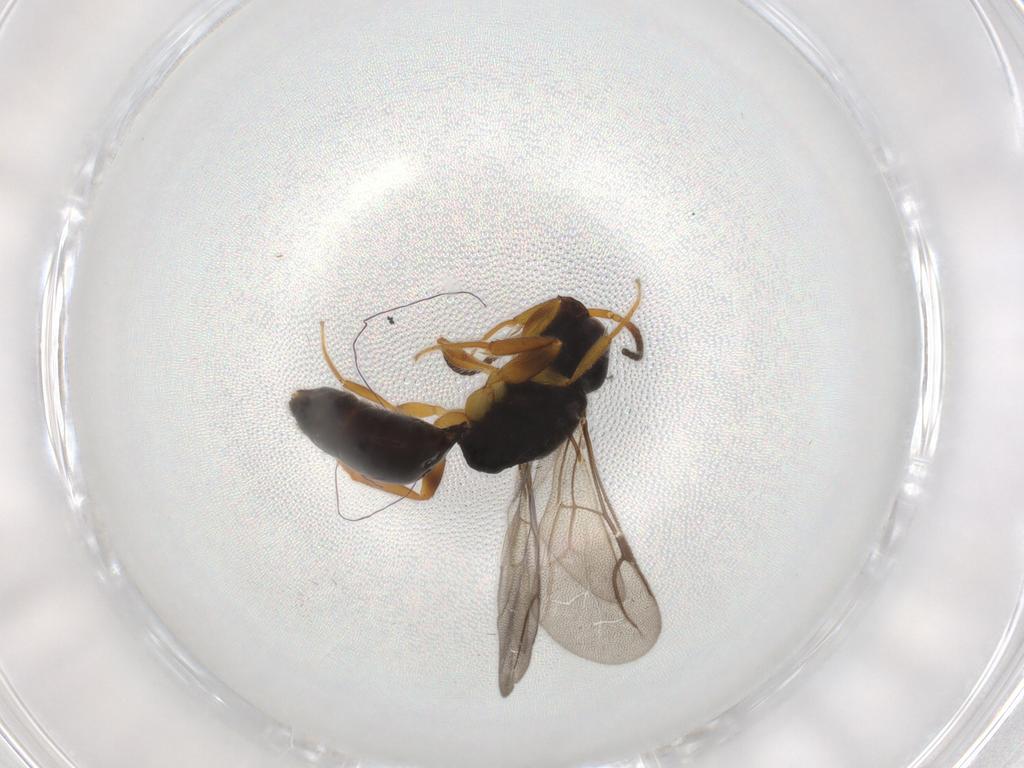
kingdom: Animalia
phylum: Arthropoda
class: Insecta
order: Hymenoptera
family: Bethylidae
